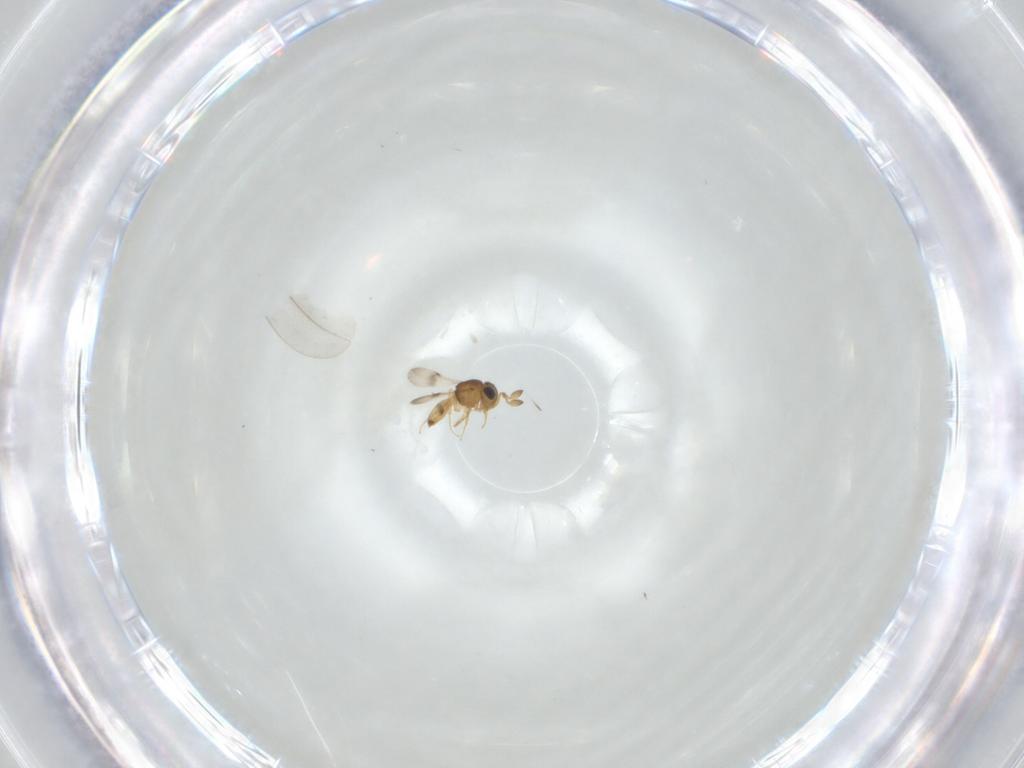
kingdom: Animalia
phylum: Arthropoda
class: Insecta
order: Hymenoptera
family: Scelionidae
